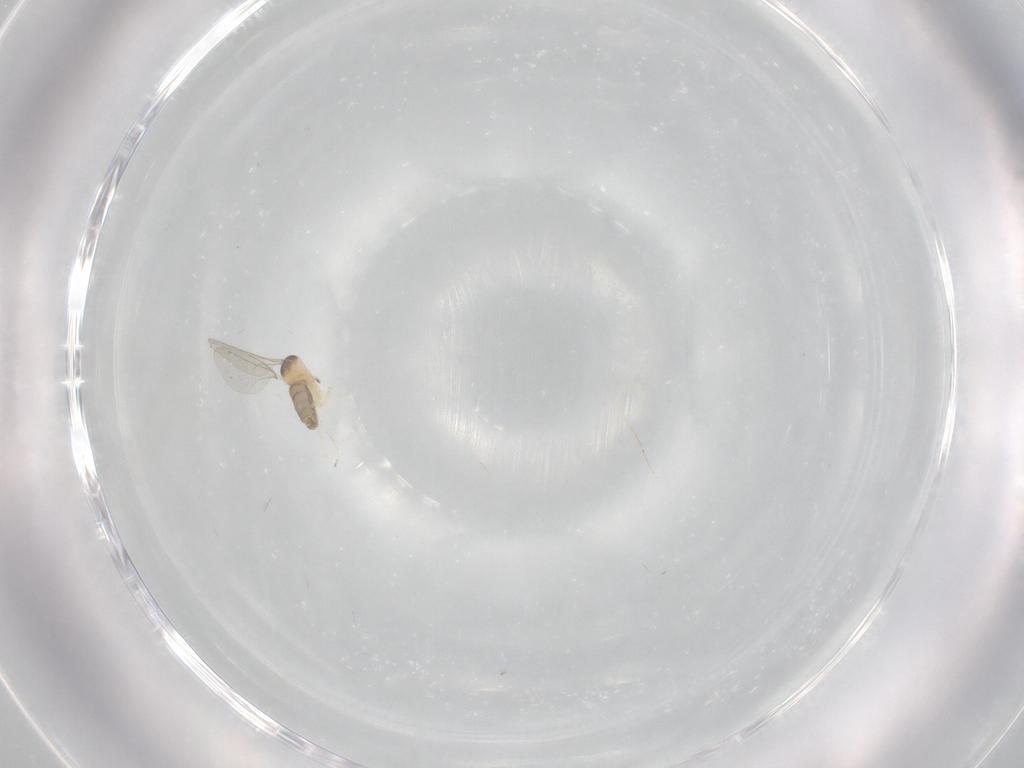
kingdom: Animalia
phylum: Arthropoda
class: Insecta
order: Diptera
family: Cecidomyiidae
